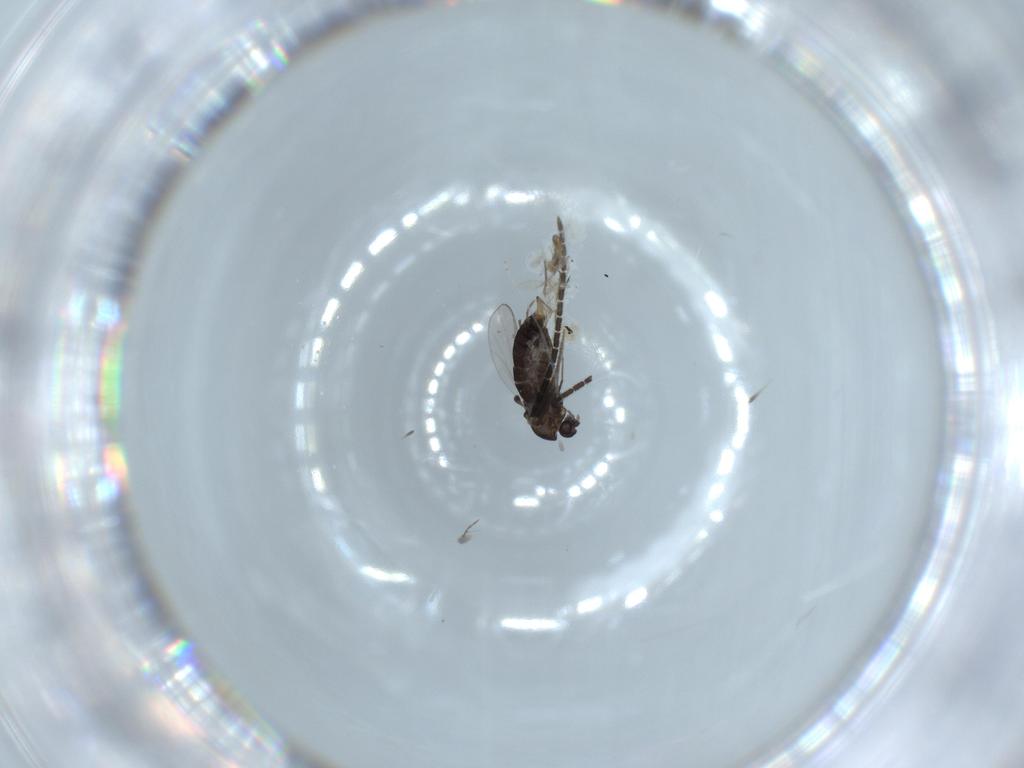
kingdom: Animalia
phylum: Arthropoda
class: Insecta
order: Diptera
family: Chironomidae
